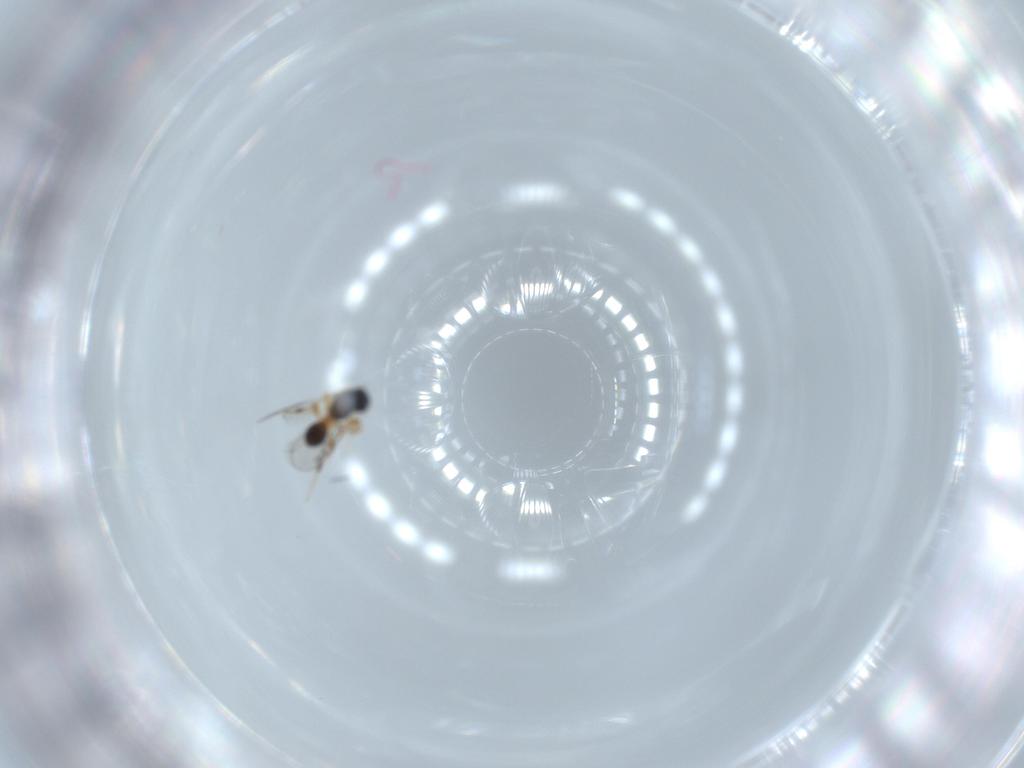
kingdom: Animalia
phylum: Arthropoda
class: Insecta
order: Hymenoptera
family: Platygastridae
